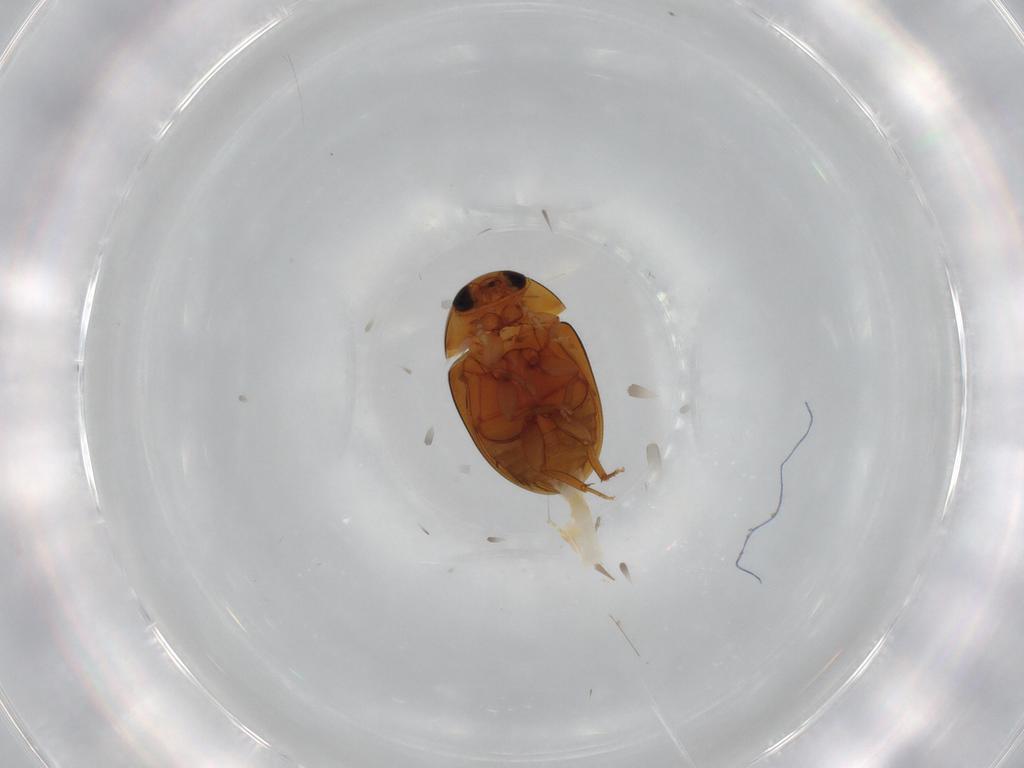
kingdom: Animalia
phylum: Arthropoda
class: Insecta
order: Coleoptera
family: Phalacridae
